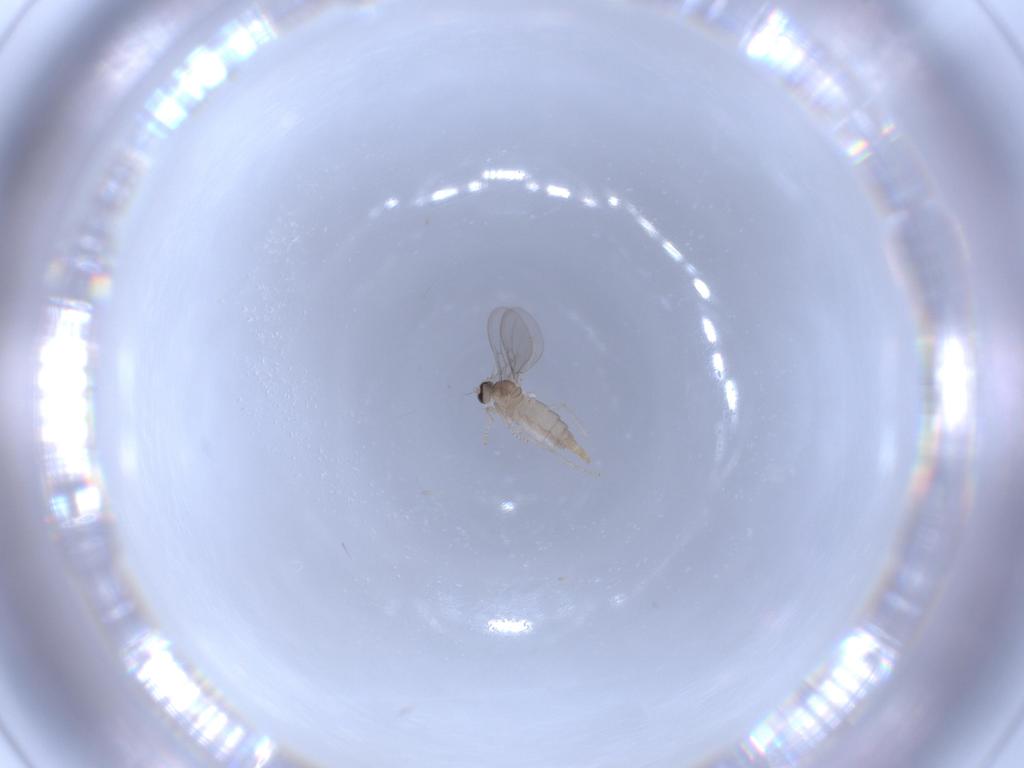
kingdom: Animalia
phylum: Arthropoda
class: Insecta
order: Diptera
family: Cecidomyiidae
